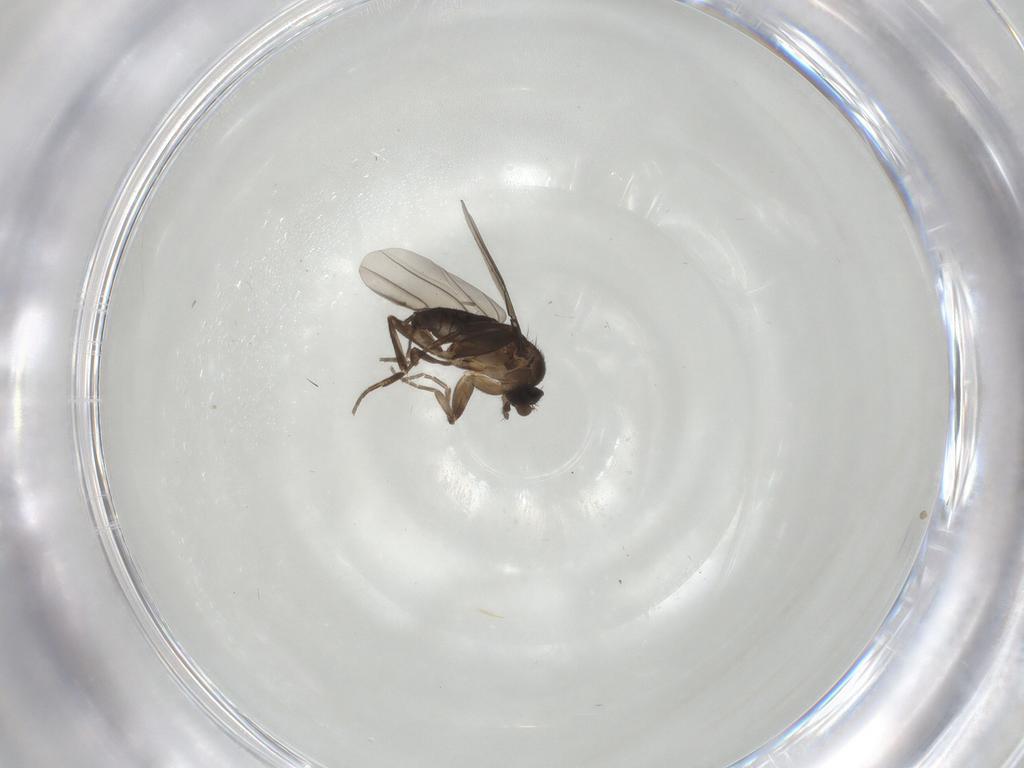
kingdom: Animalia
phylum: Arthropoda
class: Insecta
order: Diptera
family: Phoridae
